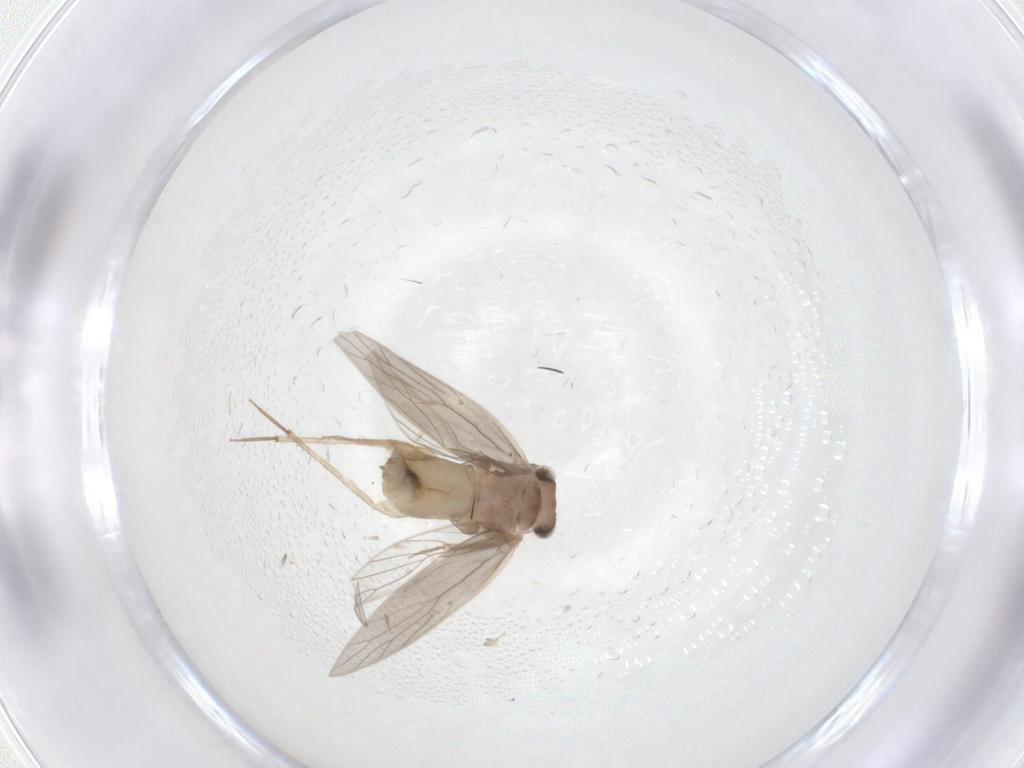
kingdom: Animalia
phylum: Arthropoda
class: Insecta
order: Psocodea
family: Lepidopsocidae
